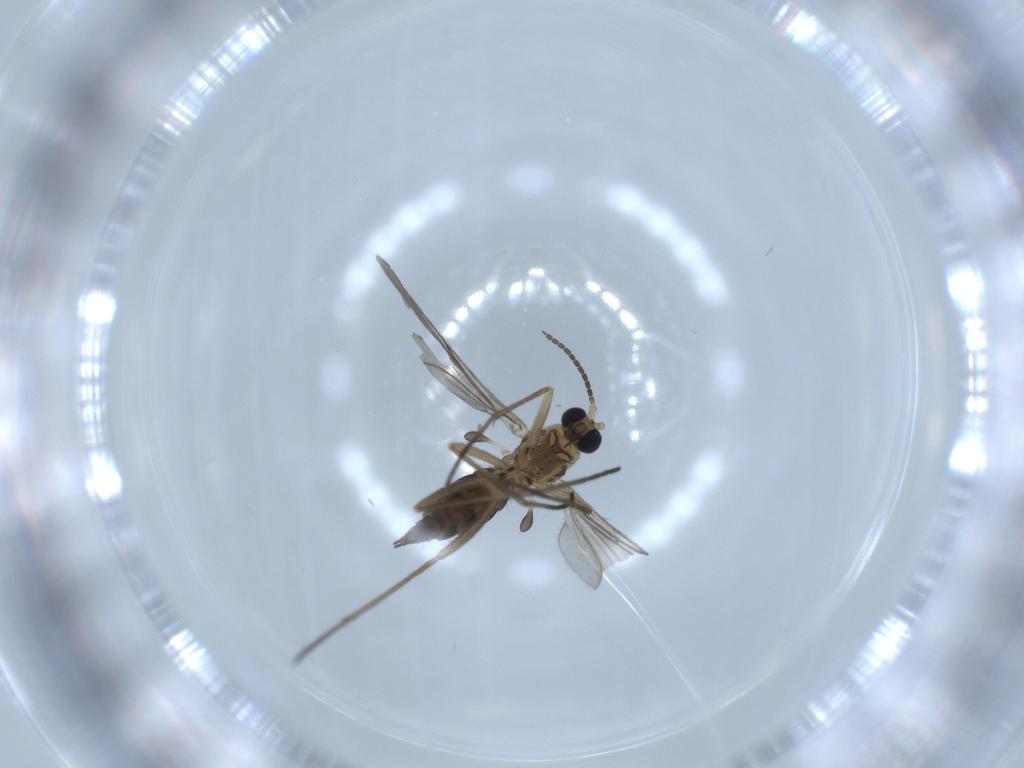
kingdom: Animalia
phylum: Arthropoda
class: Insecta
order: Diptera
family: Sciaridae
